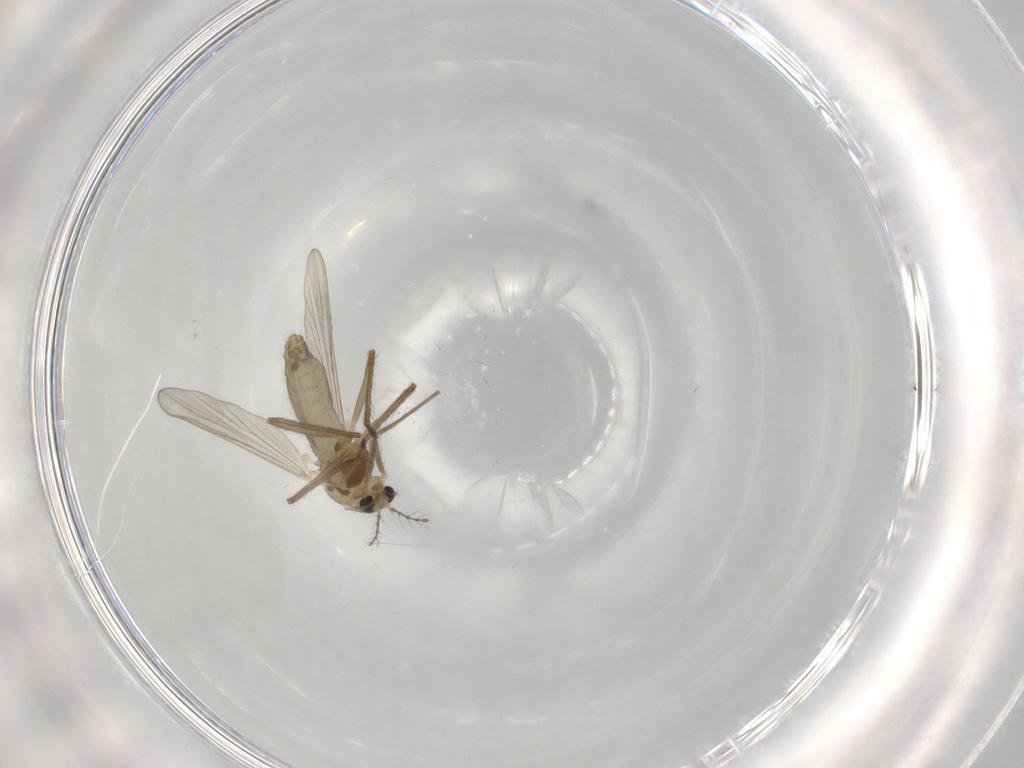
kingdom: Animalia
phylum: Arthropoda
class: Insecta
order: Diptera
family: Chironomidae
